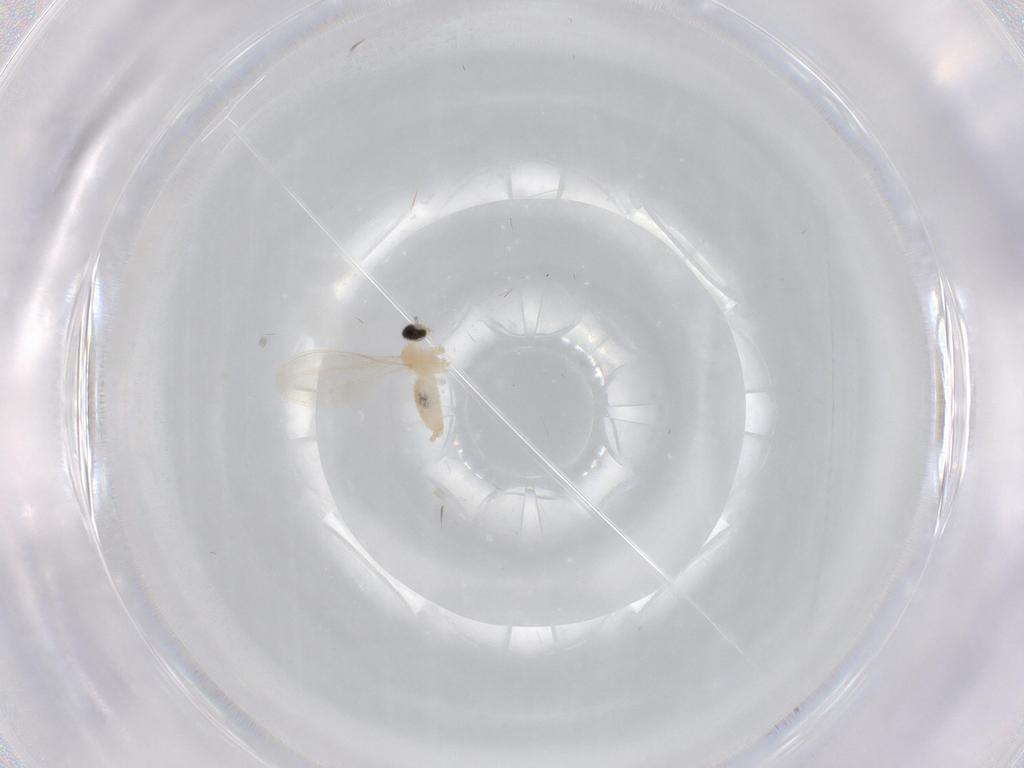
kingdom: Animalia
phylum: Arthropoda
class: Insecta
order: Diptera
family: Cecidomyiidae
